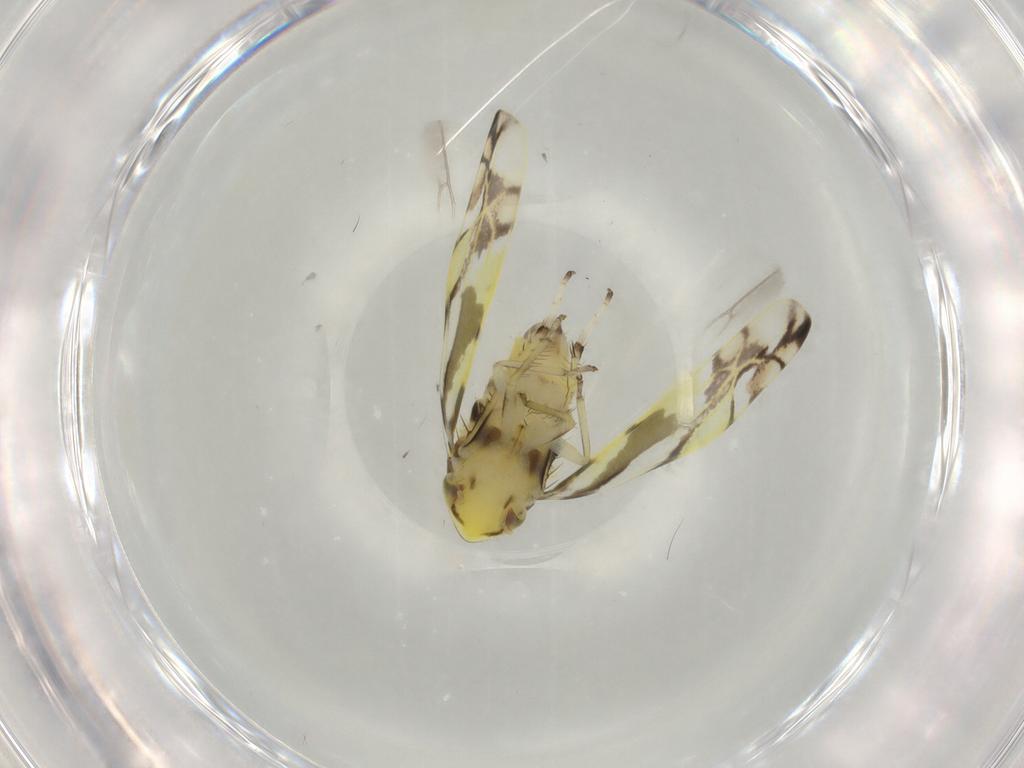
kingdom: Animalia
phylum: Arthropoda
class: Insecta
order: Hemiptera
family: Cicadellidae
